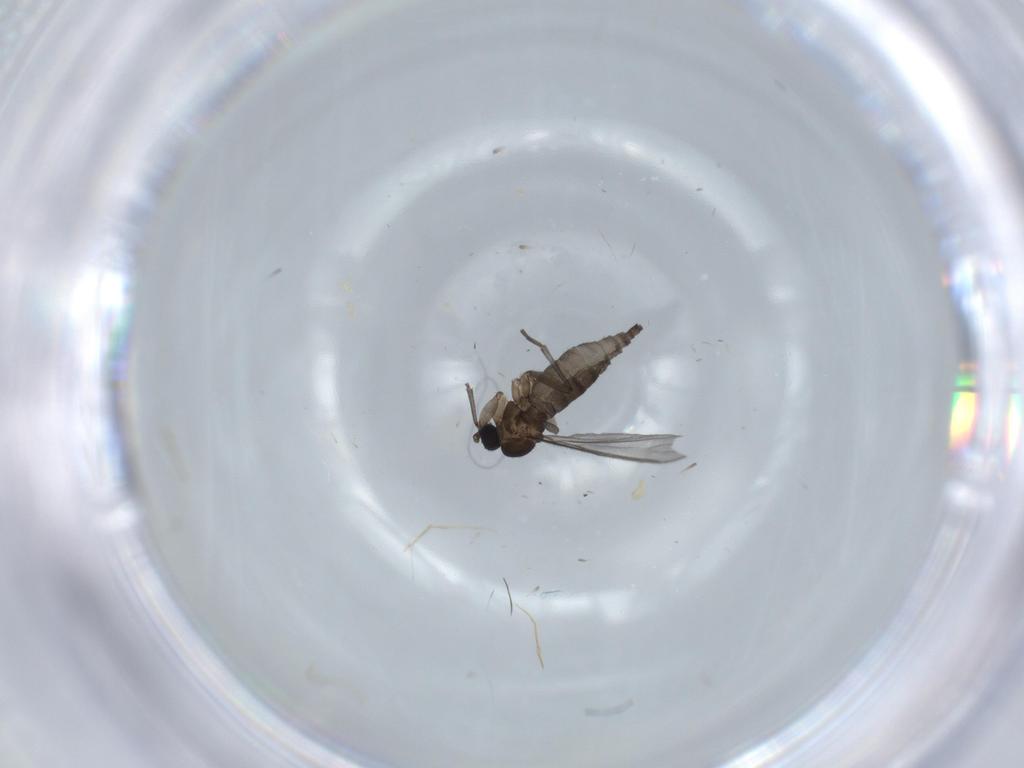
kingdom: Animalia
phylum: Arthropoda
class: Insecta
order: Diptera
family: Sciaridae
